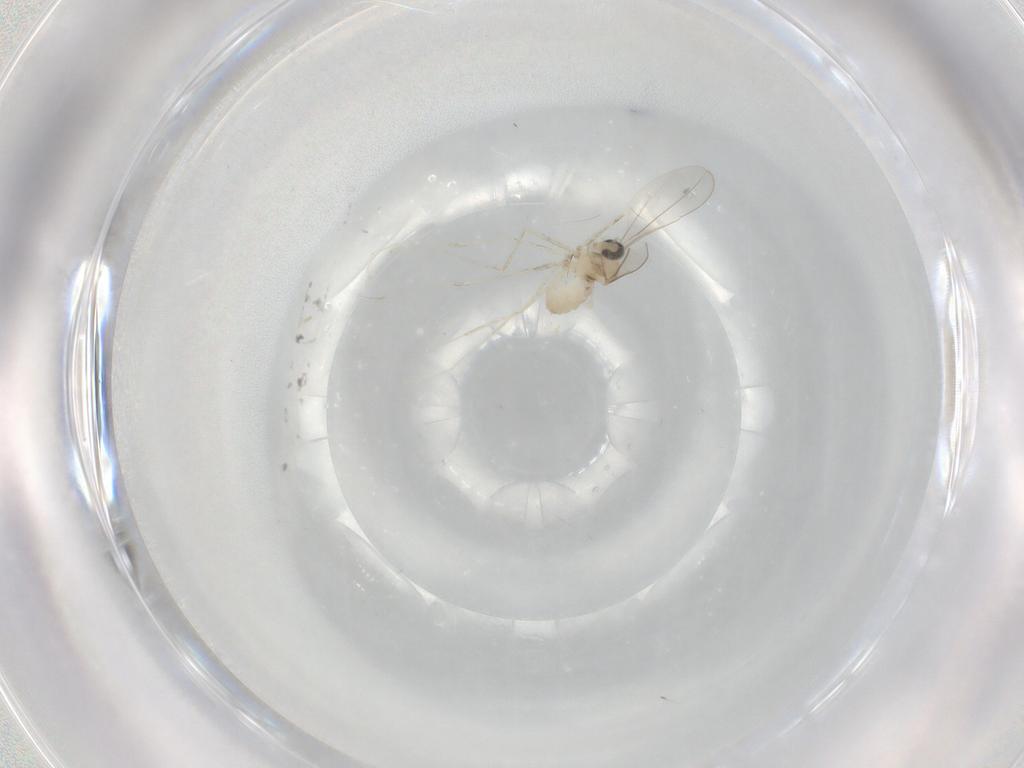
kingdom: Animalia
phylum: Arthropoda
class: Insecta
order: Diptera
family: Cecidomyiidae
